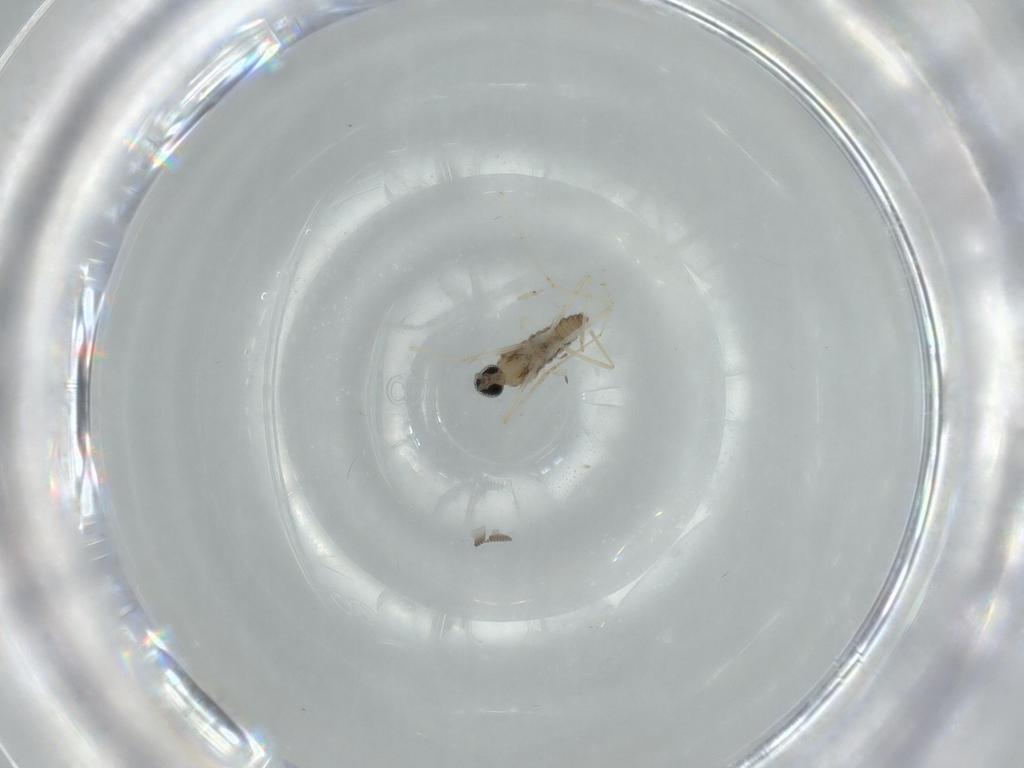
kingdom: Animalia
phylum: Arthropoda
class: Insecta
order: Diptera
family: Cecidomyiidae
